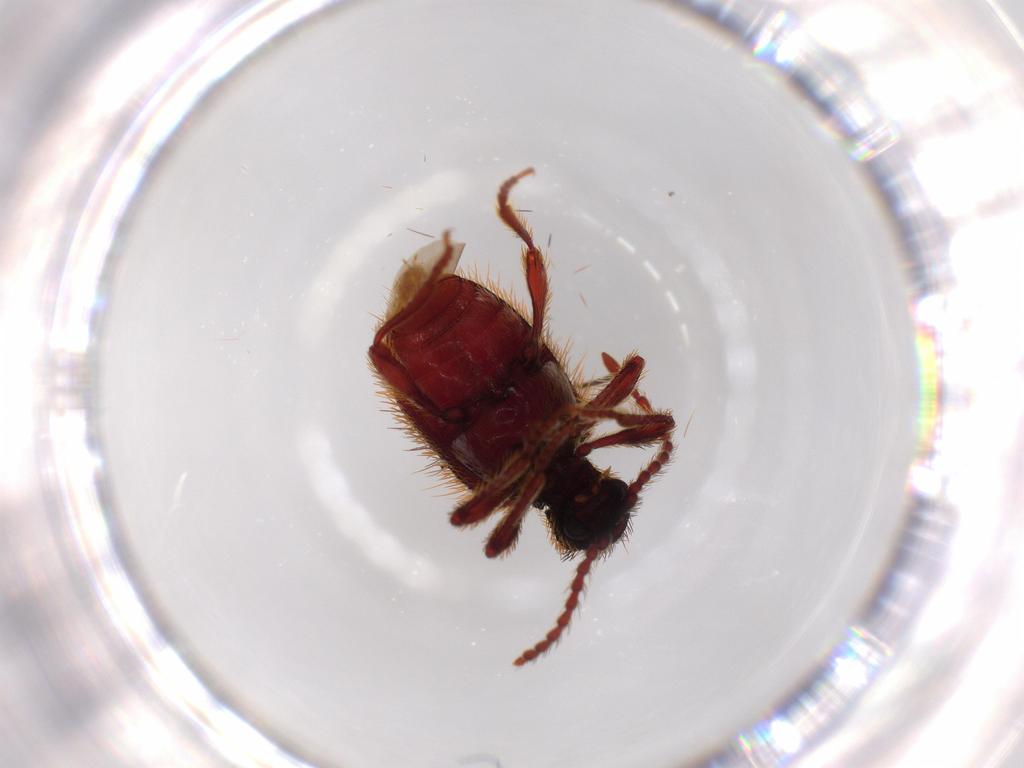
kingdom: Animalia
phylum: Arthropoda
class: Insecta
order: Coleoptera
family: Ptinidae
